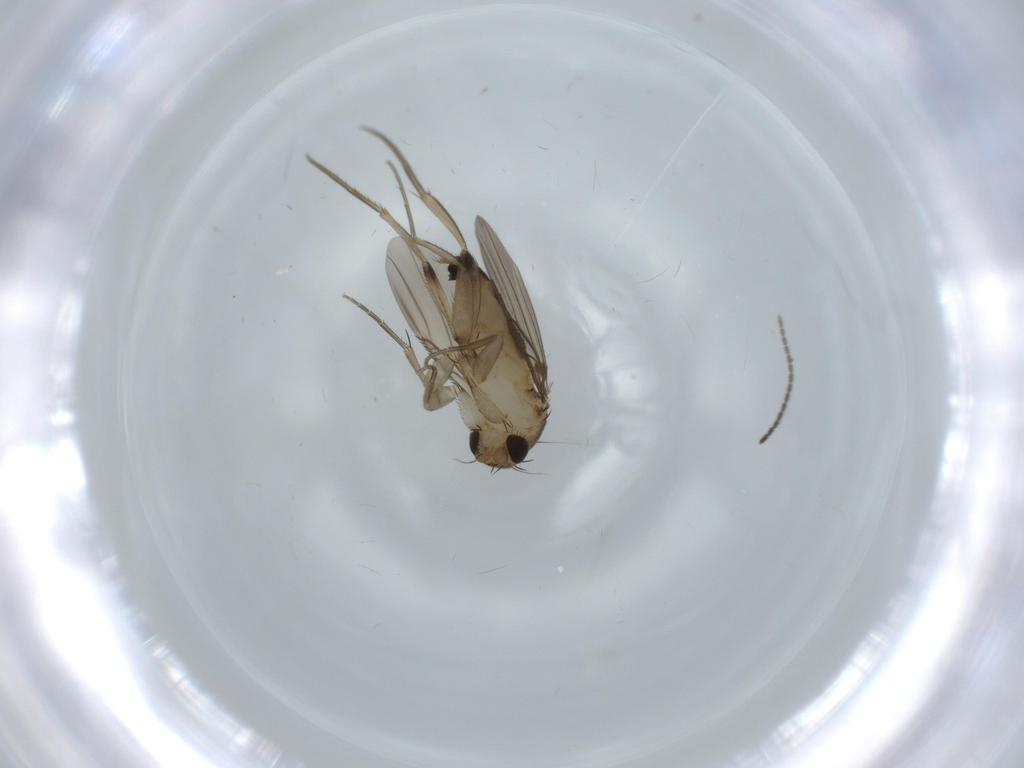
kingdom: Animalia
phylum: Arthropoda
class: Insecta
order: Diptera
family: Phoridae
